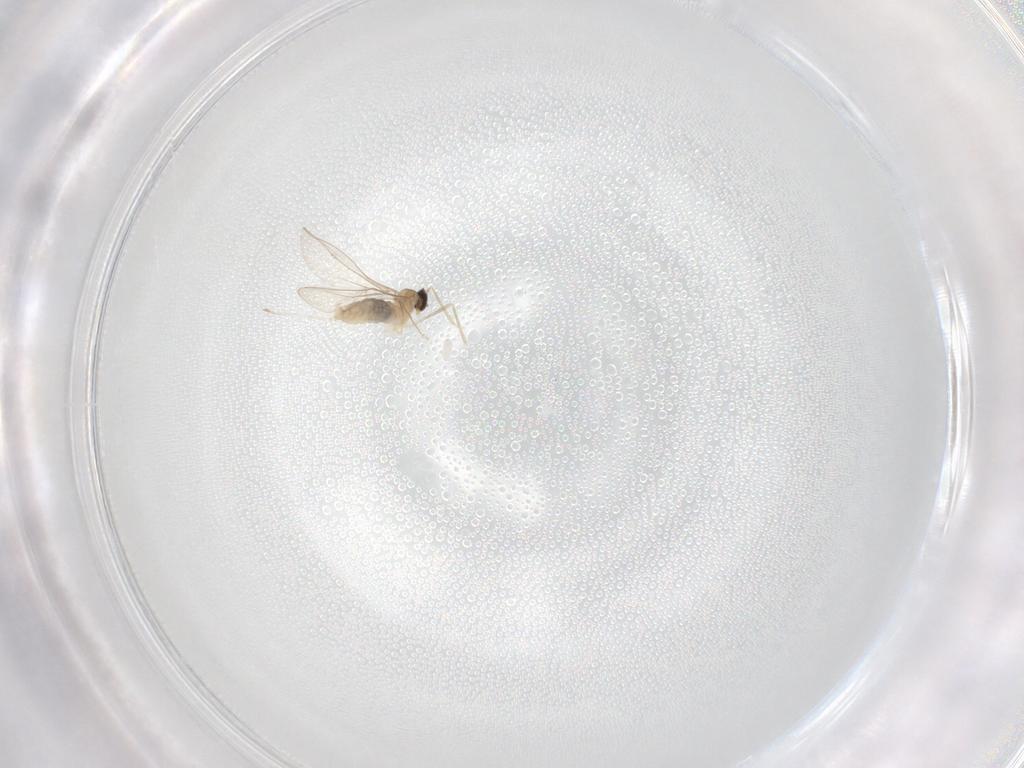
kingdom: Animalia
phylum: Arthropoda
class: Insecta
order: Diptera
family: Cecidomyiidae
